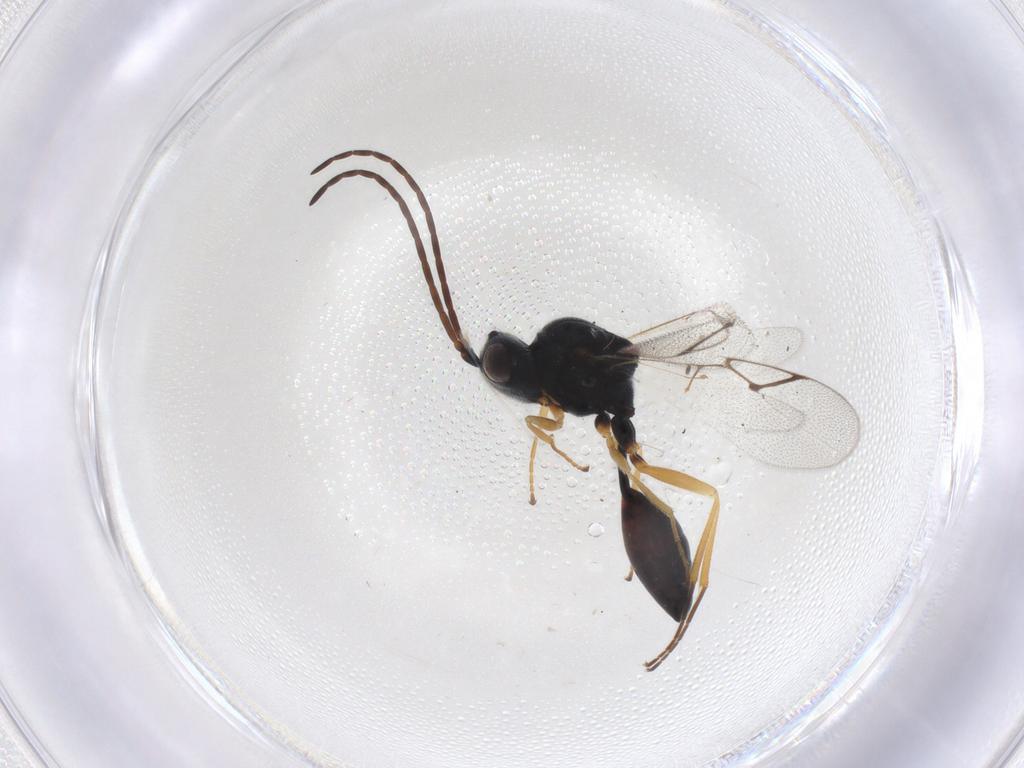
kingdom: Animalia
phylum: Arthropoda
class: Insecta
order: Hymenoptera
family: Figitidae
